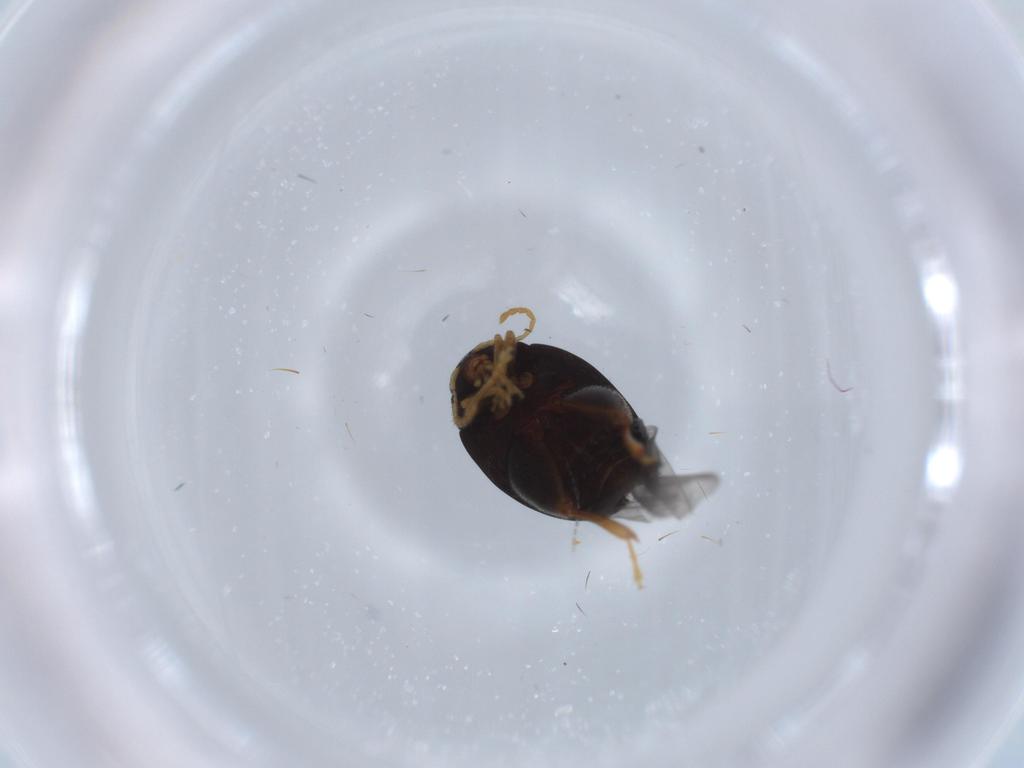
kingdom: Animalia
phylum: Arthropoda
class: Insecta
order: Coleoptera
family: Chrysomelidae
